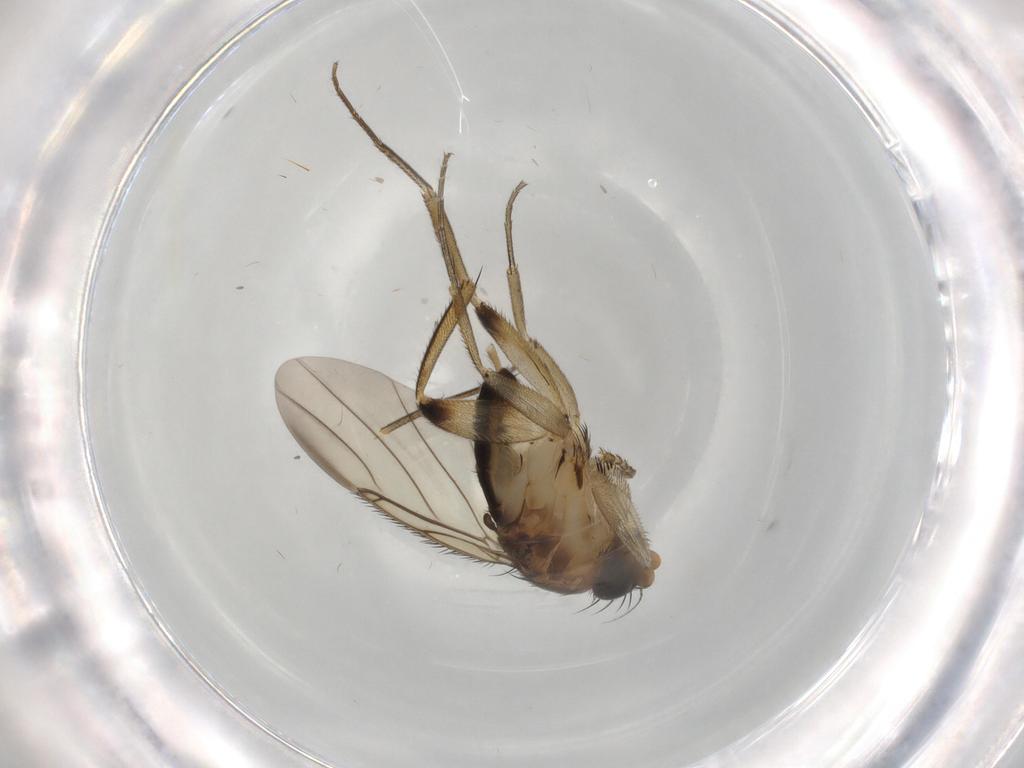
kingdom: Animalia
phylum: Arthropoda
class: Insecta
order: Diptera
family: Phoridae
